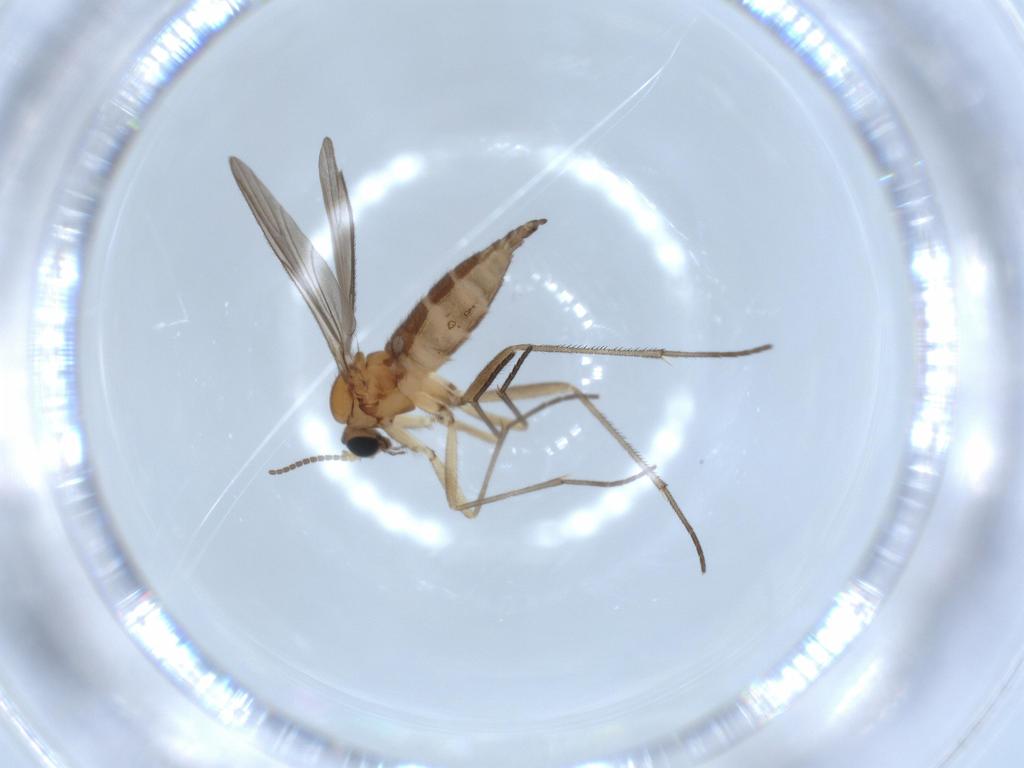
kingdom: Animalia
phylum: Arthropoda
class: Insecta
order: Diptera
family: Sciaridae
